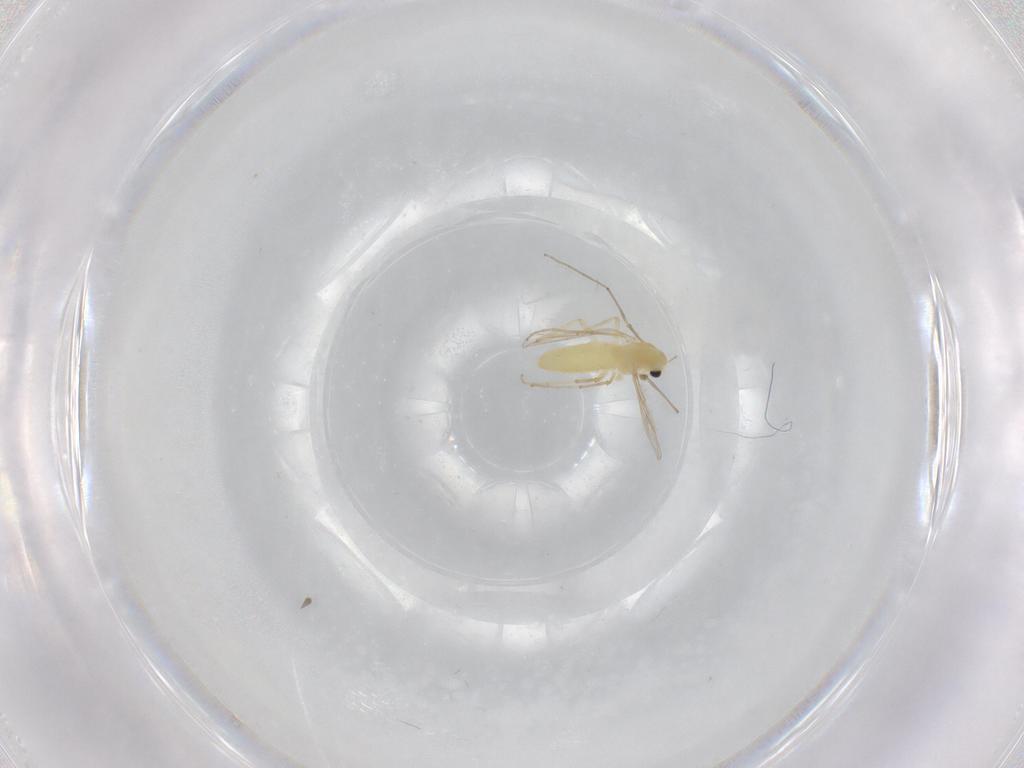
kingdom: Animalia
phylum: Arthropoda
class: Insecta
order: Diptera
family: Chironomidae
